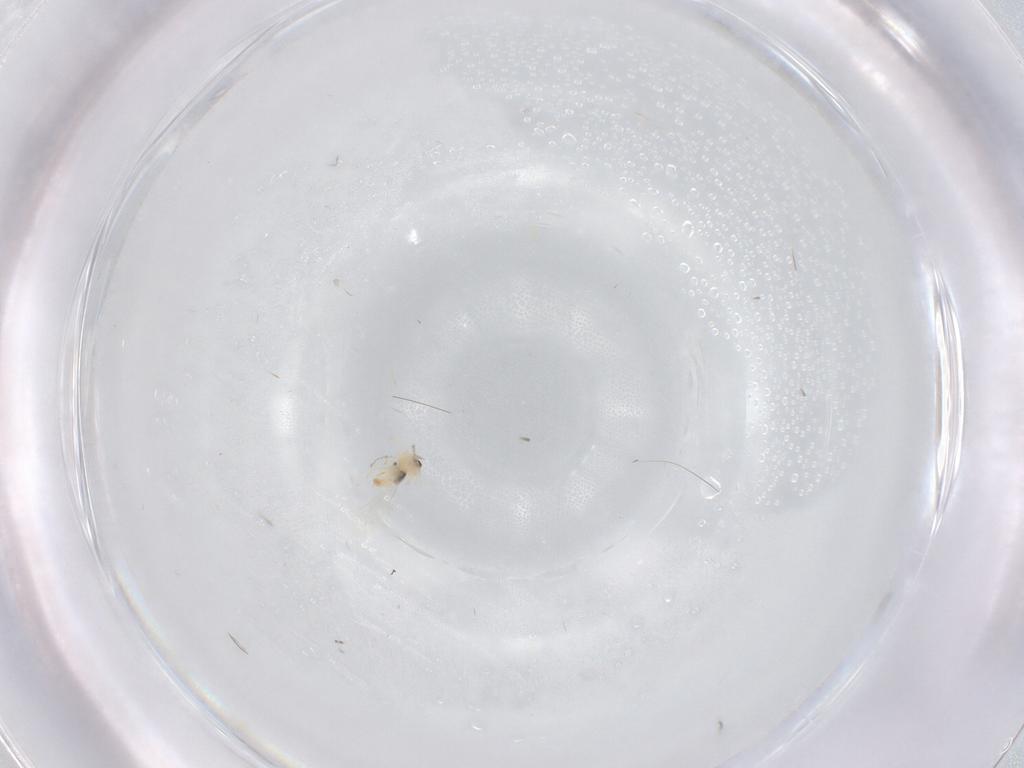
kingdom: Animalia
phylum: Arthropoda
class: Insecta
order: Diptera
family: Cecidomyiidae
